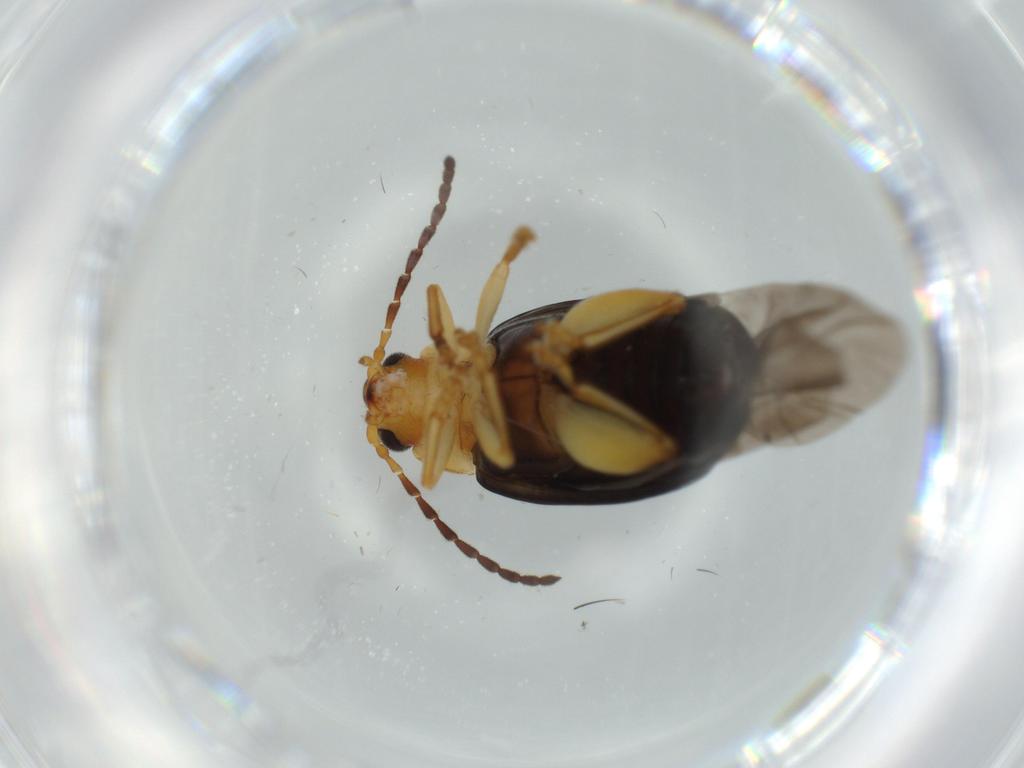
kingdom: Animalia
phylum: Arthropoda
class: Insecta
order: Coleoptera
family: Chrysomelidae
